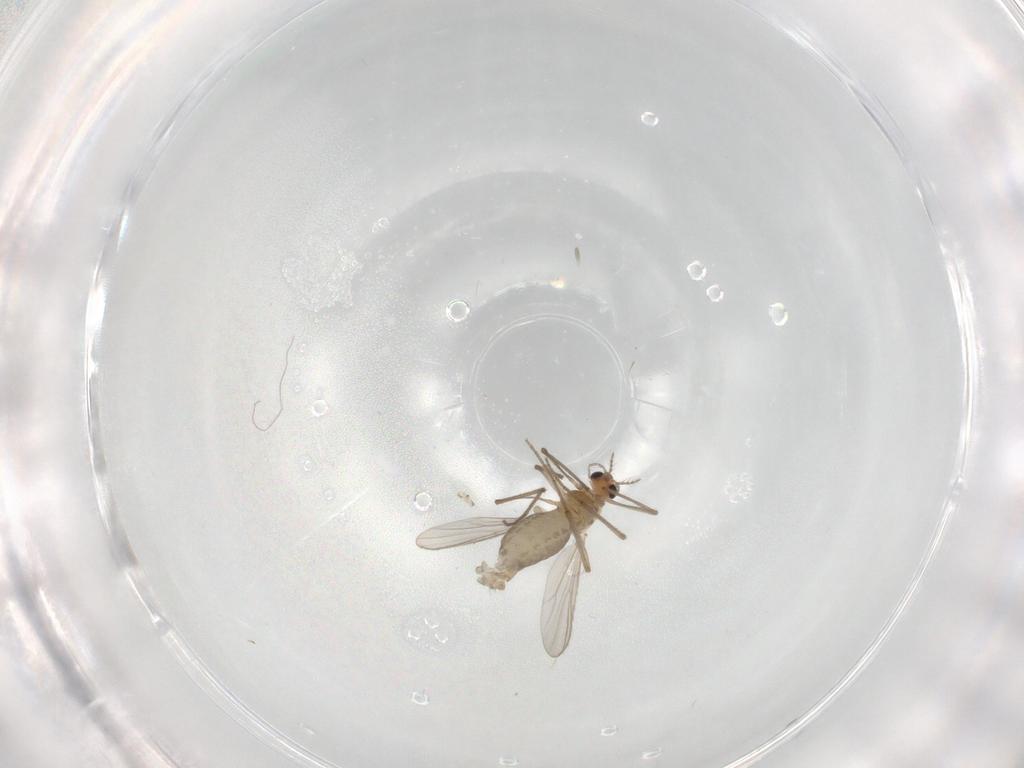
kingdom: Animalia
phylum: Arthropoda
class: Insecta
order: Diptera
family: Chironomidae
